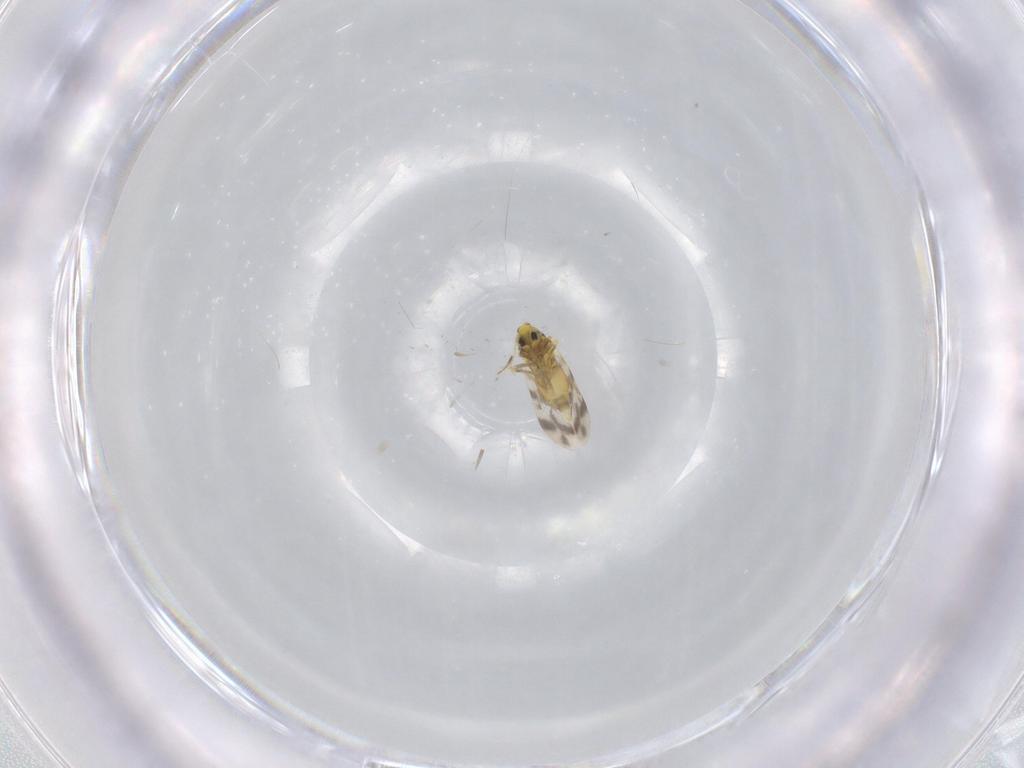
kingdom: Animalia
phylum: Arthropoda
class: Insecta
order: Hemiptera
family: Aleyrodidae
